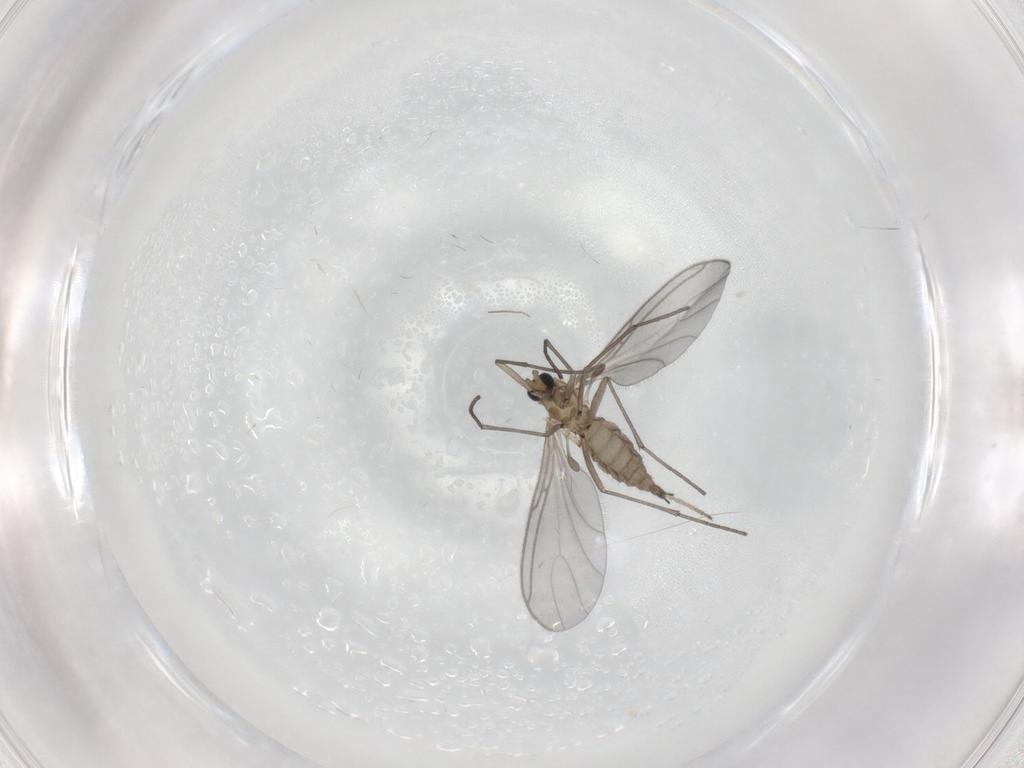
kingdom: Animalia
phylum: Arthropoda
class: Insecta
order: Diptera
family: Sciaridae
